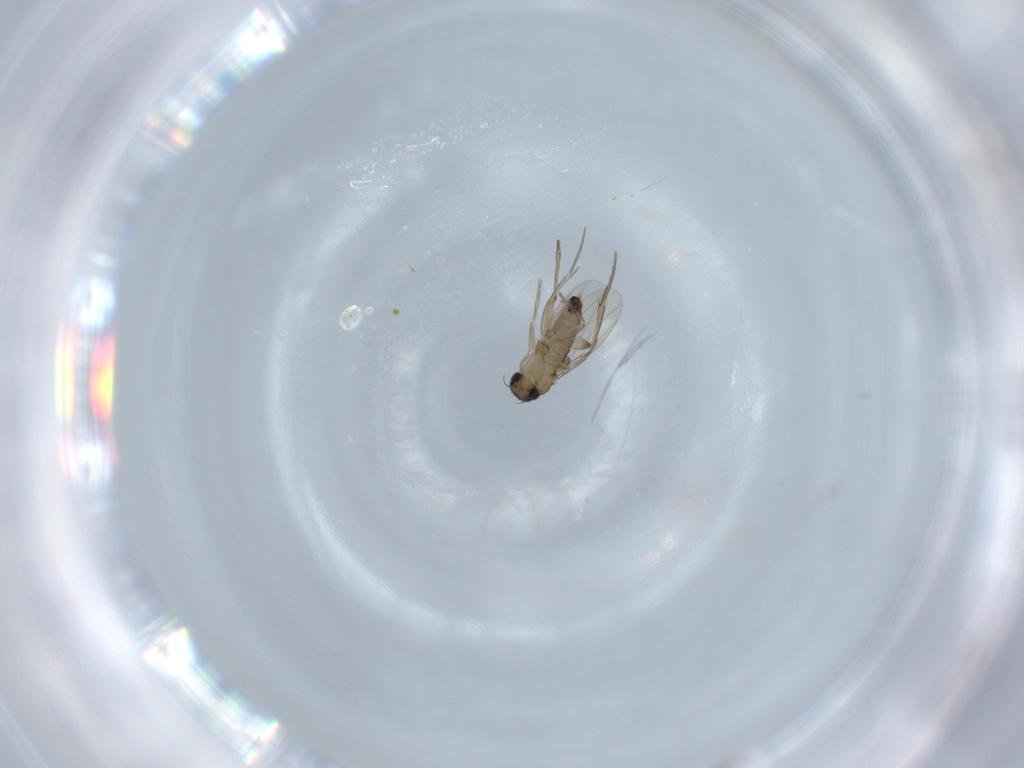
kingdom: Animalia
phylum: Arthropoda
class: Insecta
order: Diptera
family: Phoridae
